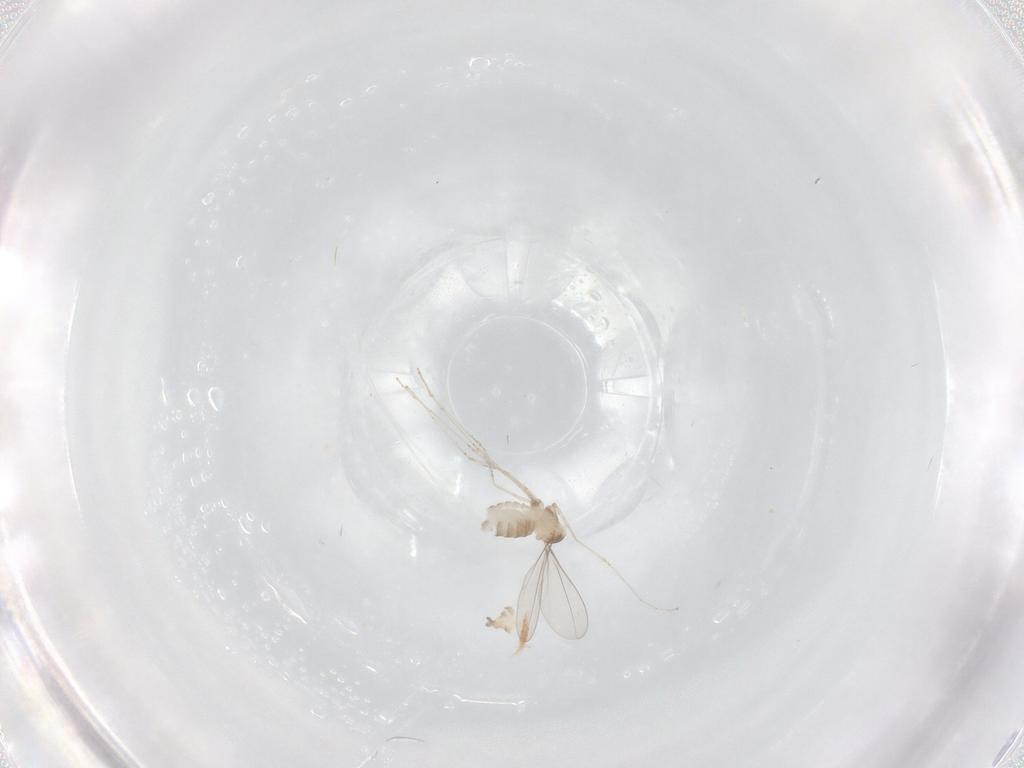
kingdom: Animalia
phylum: Arthropoda
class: Insecta
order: Diptera
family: Cecidomyiidae
